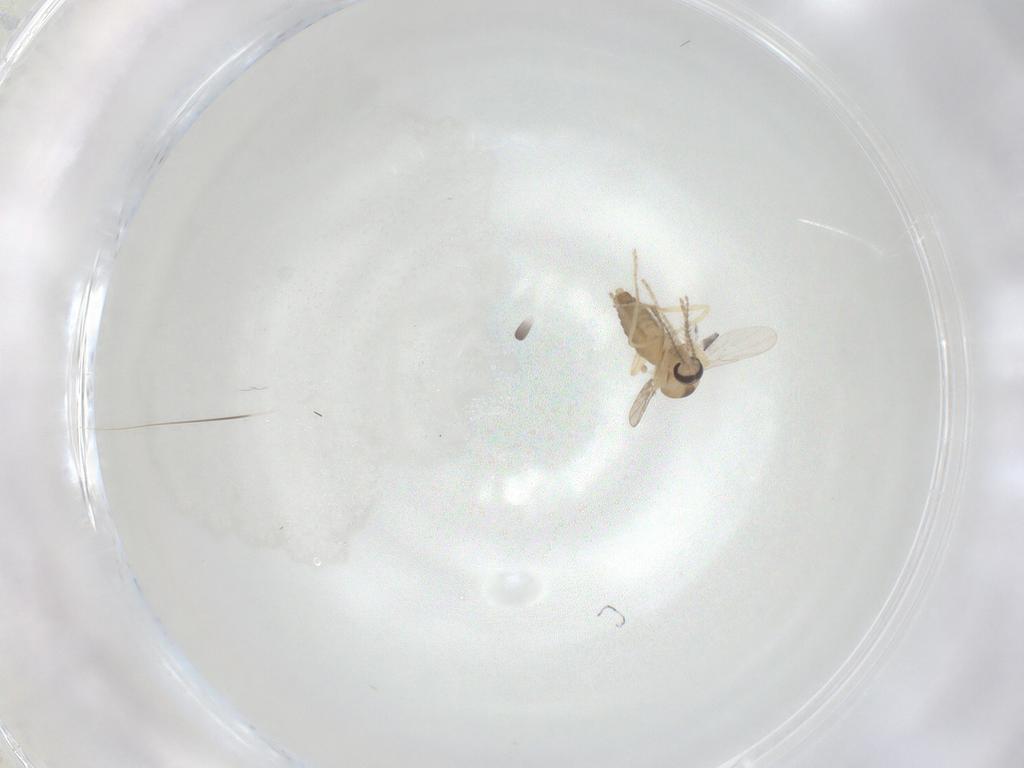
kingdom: Animalia
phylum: Arthropoda
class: Insecta
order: Diptera
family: Ceratopogonidae
